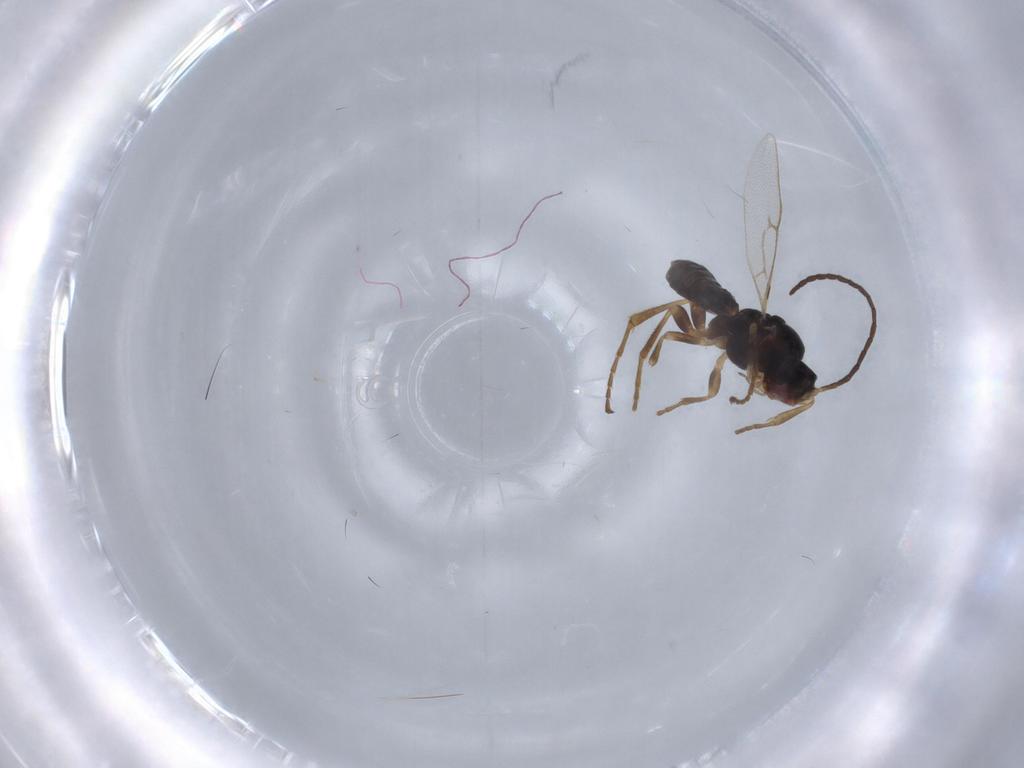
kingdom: Animalia
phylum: Arthropoda
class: Insecta
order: Hymenoptera
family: Ichneumonidae
